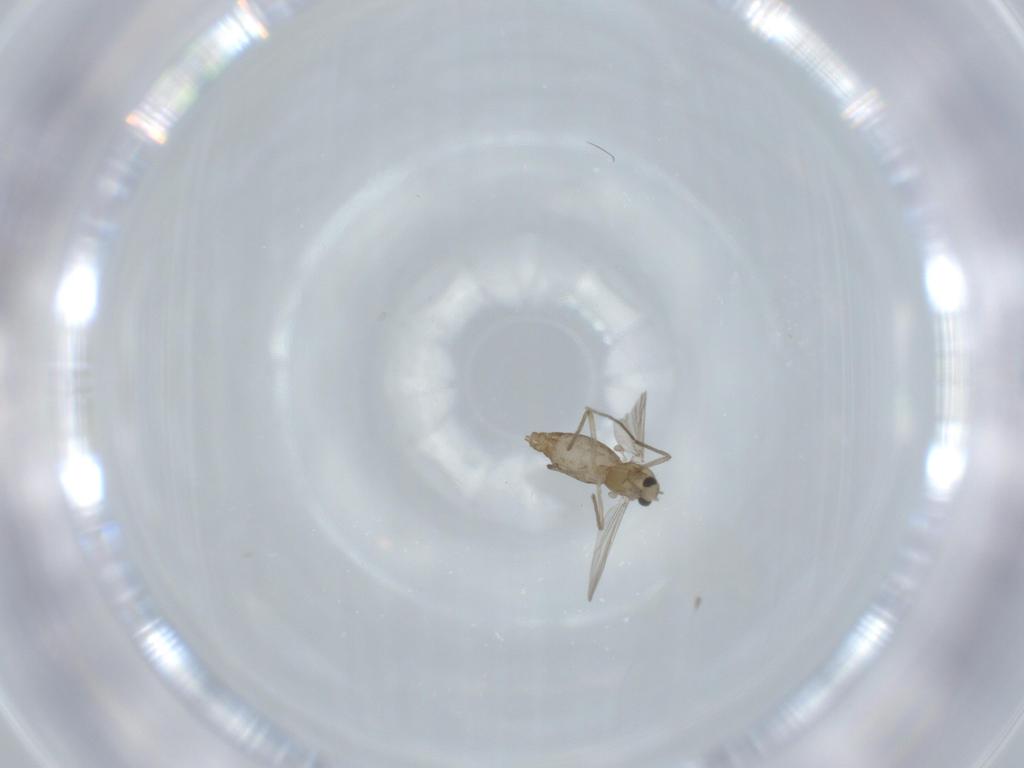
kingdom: Animalia
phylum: Arthropoda
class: Insecta
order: Diptera
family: Chironomidae
